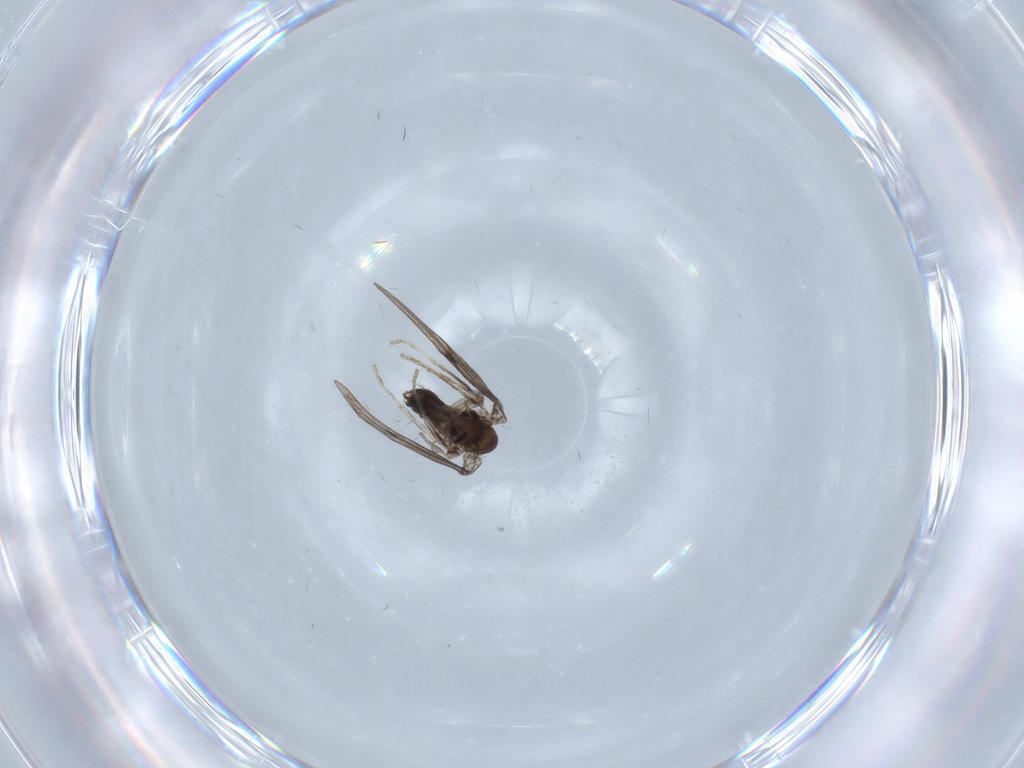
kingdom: Animalia
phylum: Arthropoda
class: Insecta
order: Diptera
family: Psychodidae
